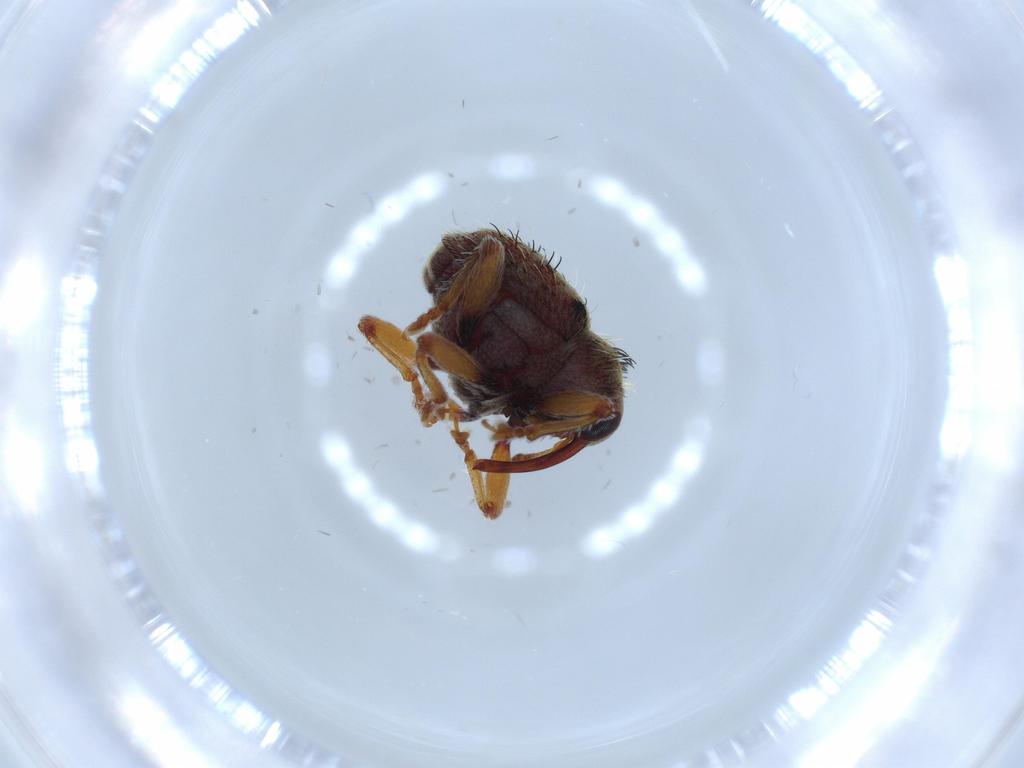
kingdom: Animalia
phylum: Arthropoda
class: Insecta
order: Coleoptera
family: Curculionidae
